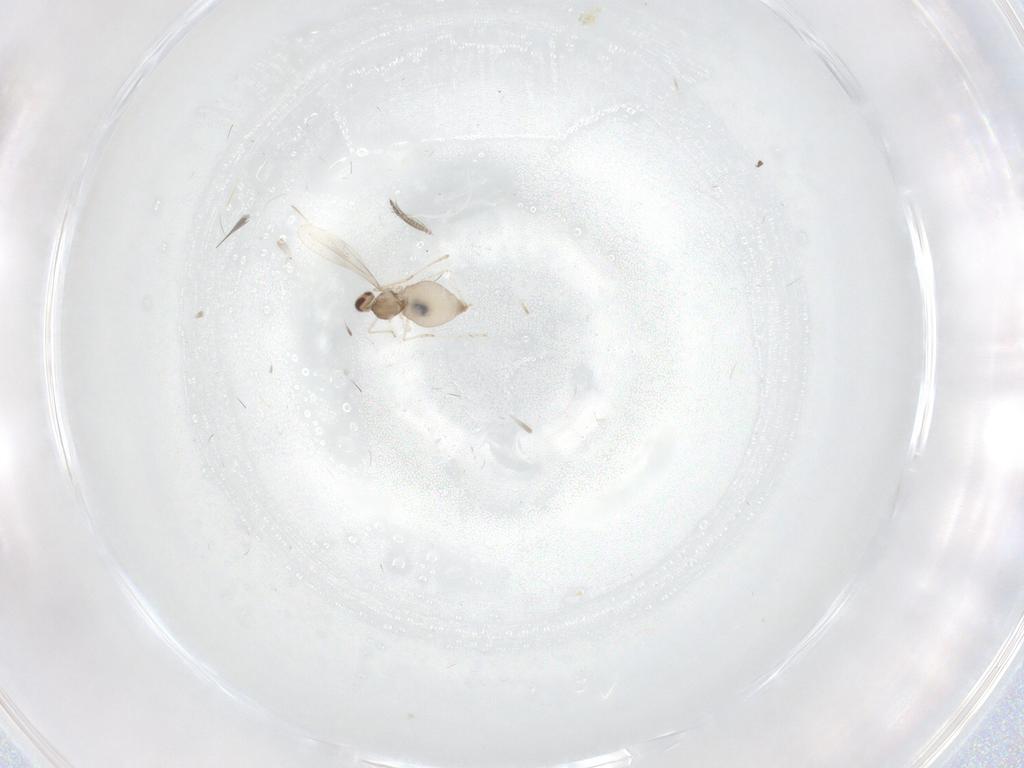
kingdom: Animalia
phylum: Arthropoda
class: Insecta
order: Diptera
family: Cecidomyiidae
